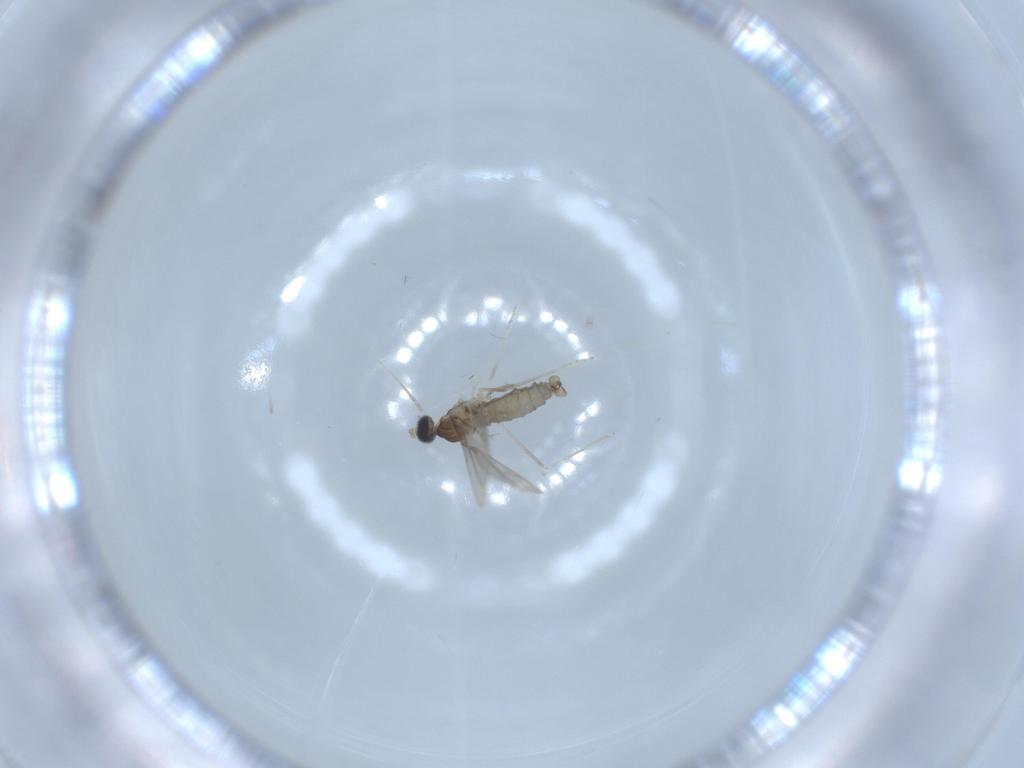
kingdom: Animalia
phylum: Arthropoda
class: Insecta
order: Diptera
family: Cecidomyiidae
